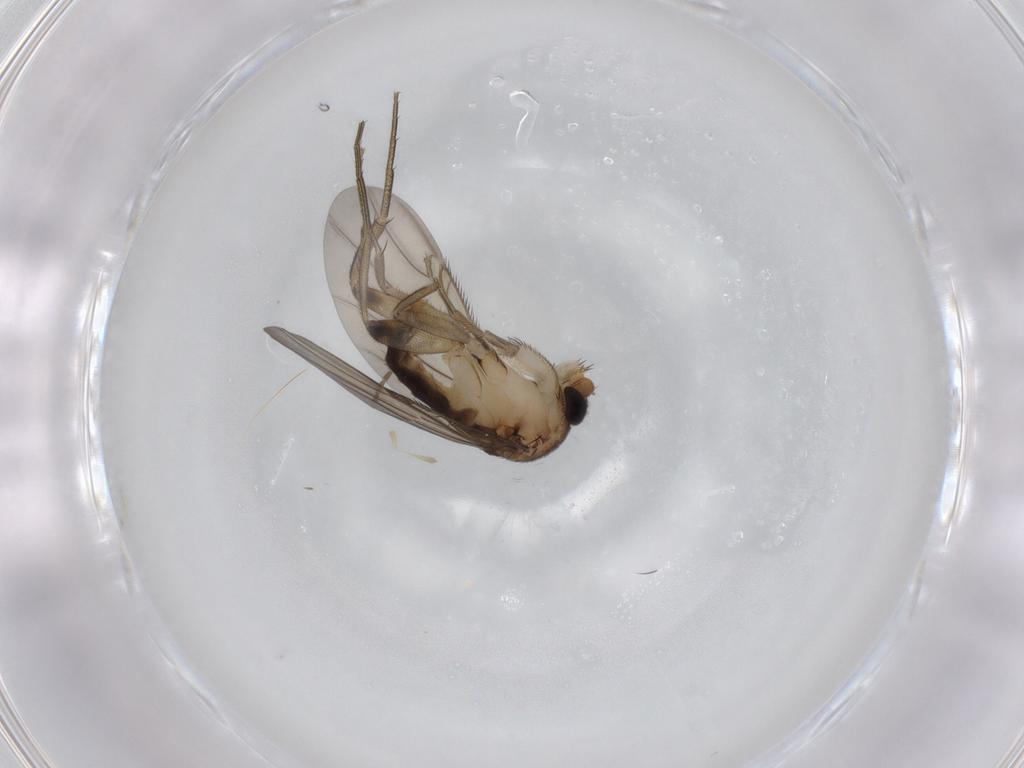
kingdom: Animalia
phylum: Arthropoda
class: Insecta
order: Diptera
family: Phoridae
